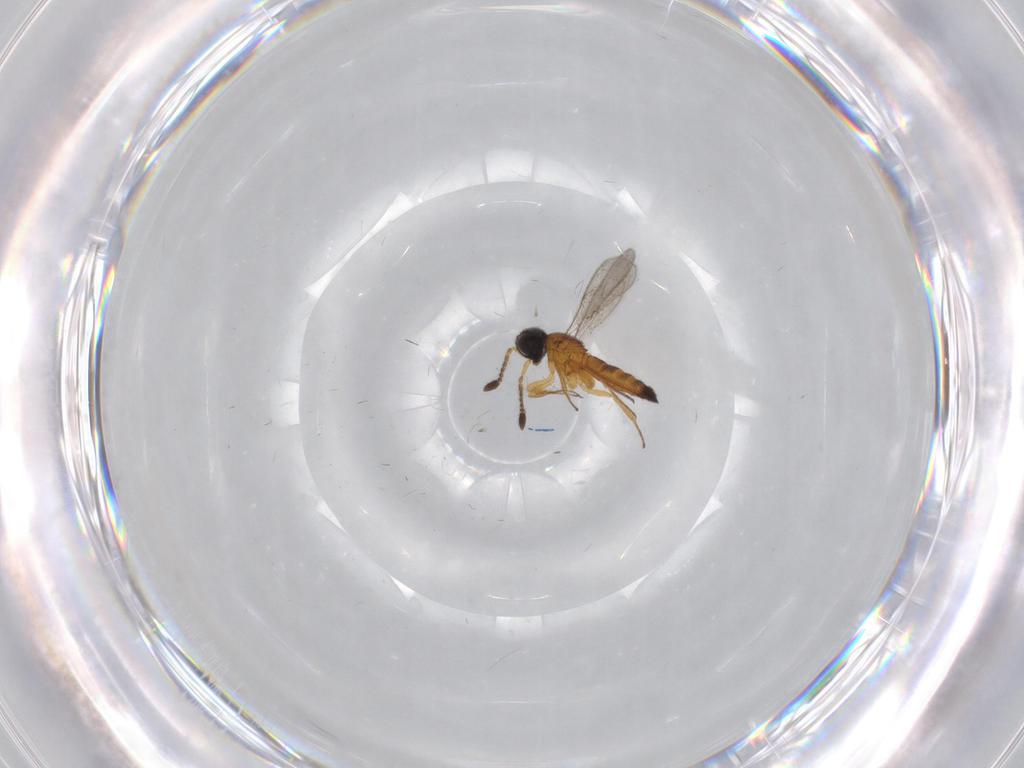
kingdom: Animalia
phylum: Arthropoda
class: Insecta
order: Hymenoptera
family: Scelionidae
